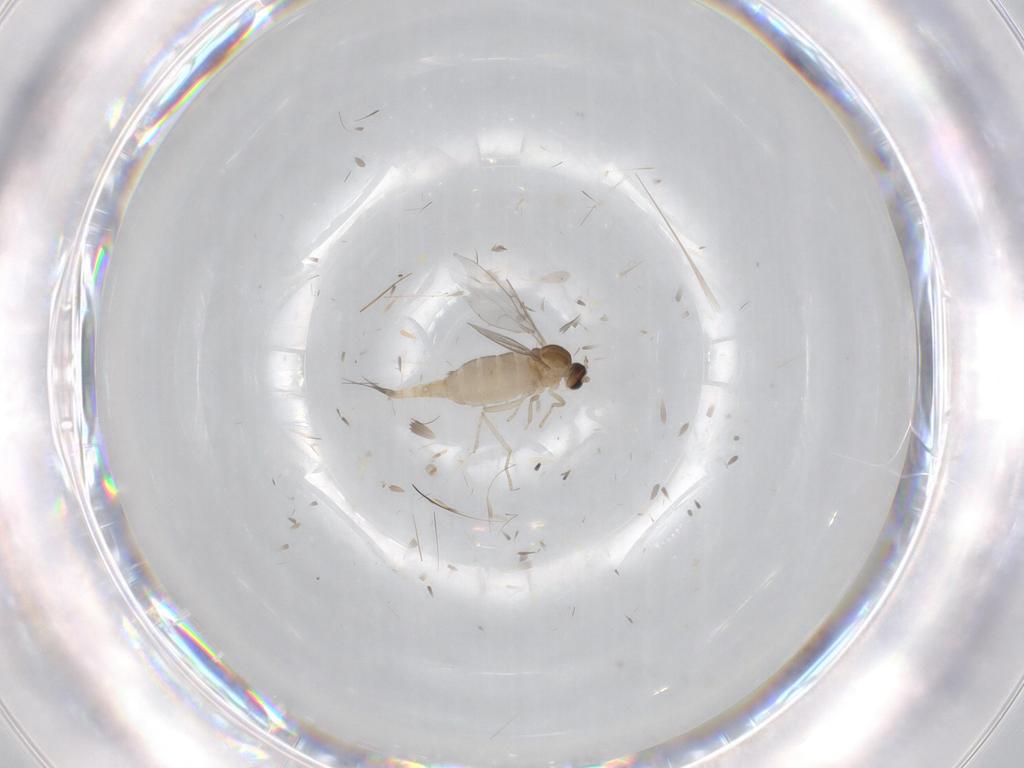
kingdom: Animalia
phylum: Arthropoda
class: Insecta
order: Diptera
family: Cecidomyiidae
